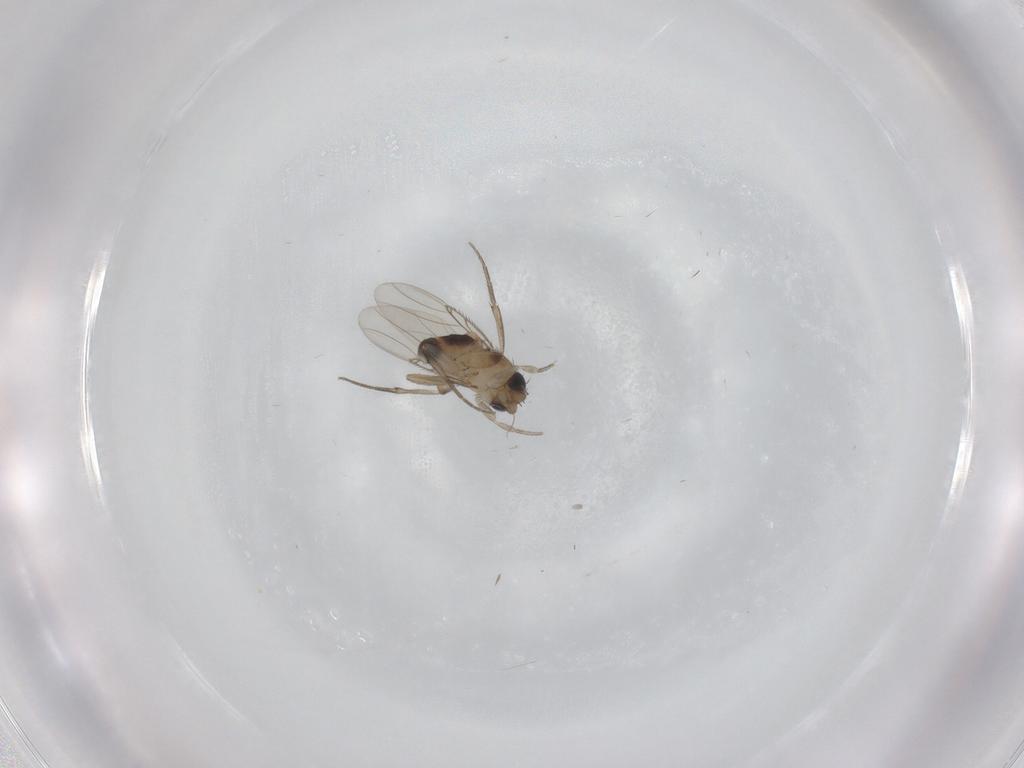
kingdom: Animalia
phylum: Arthropoda
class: Insecta
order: Diptera
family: Phoridae
